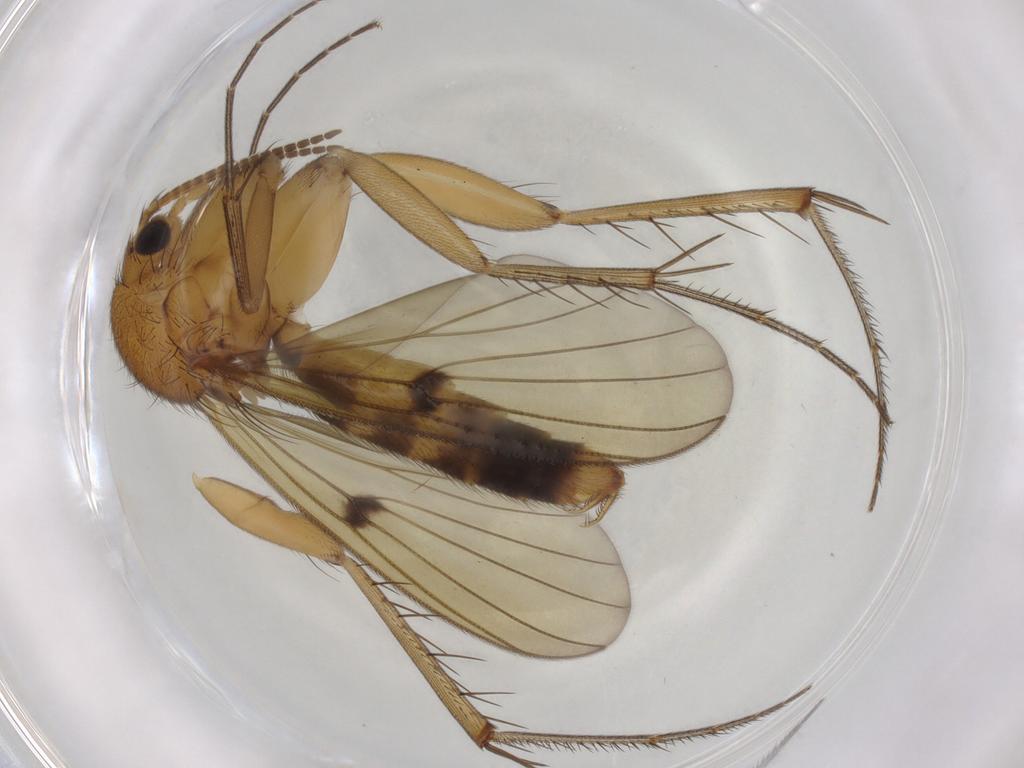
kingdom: Animalia
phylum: Arthropoda
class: Insecta
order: Diptera
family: Mycetophilidae
